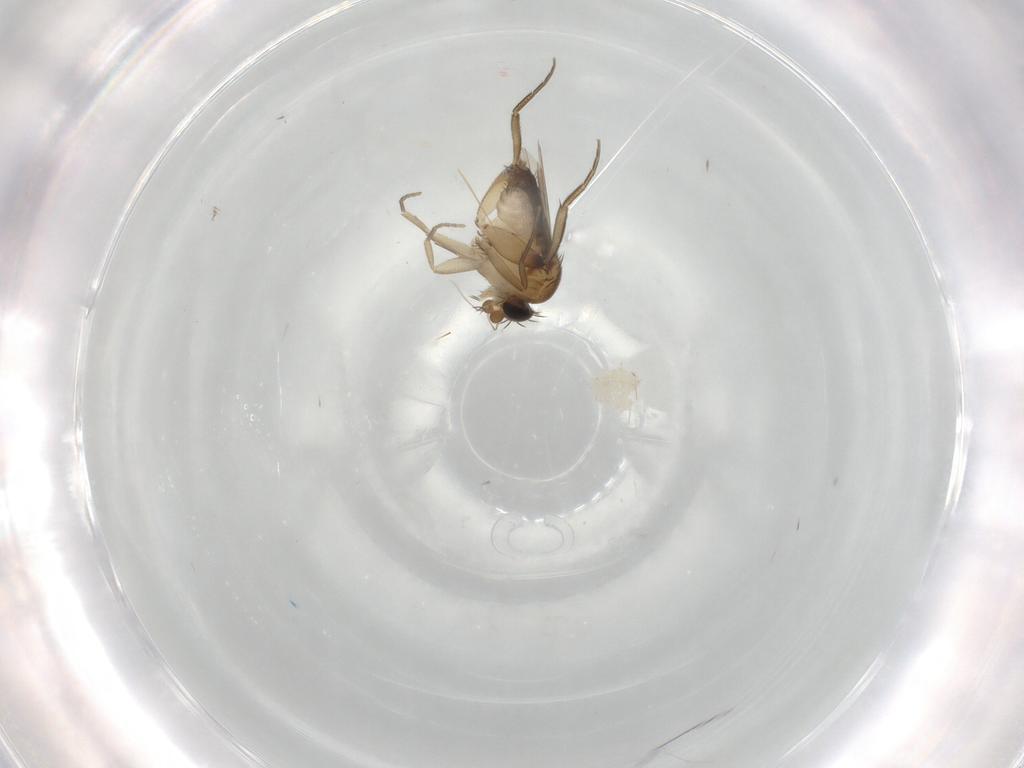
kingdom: Animalia
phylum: Arthropoda
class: Insecta
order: Diptera
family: Phoridae
